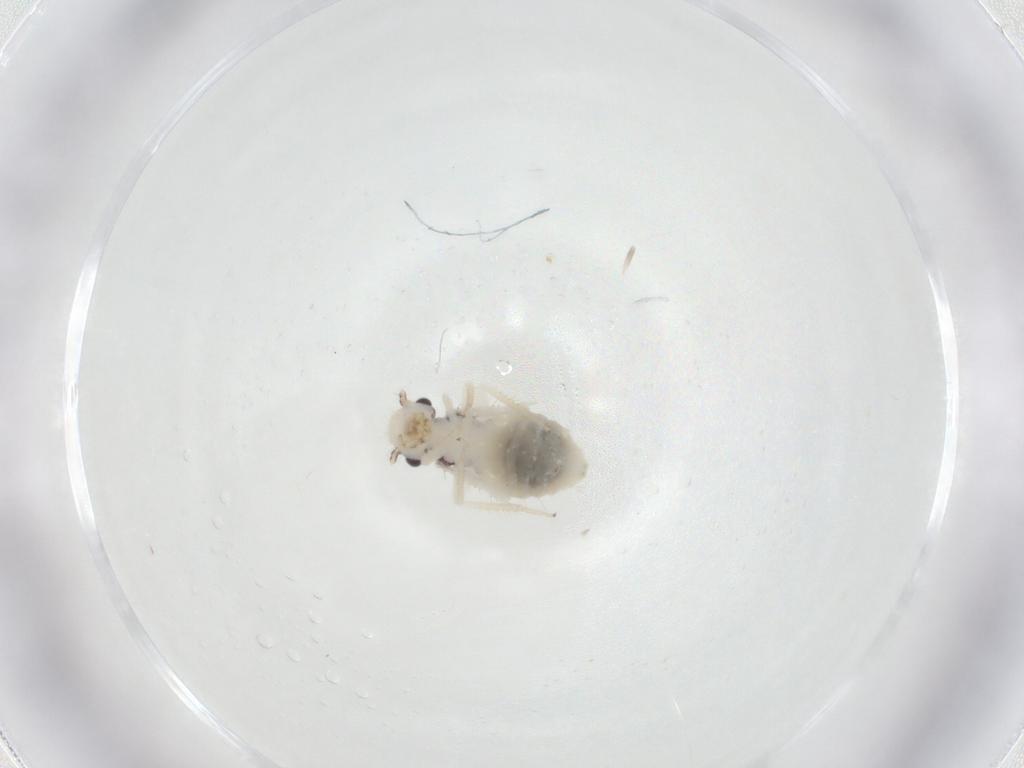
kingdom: Animalia
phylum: Arthropoda
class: Insecta
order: Psocodea
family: Pseudocaeciliidae
